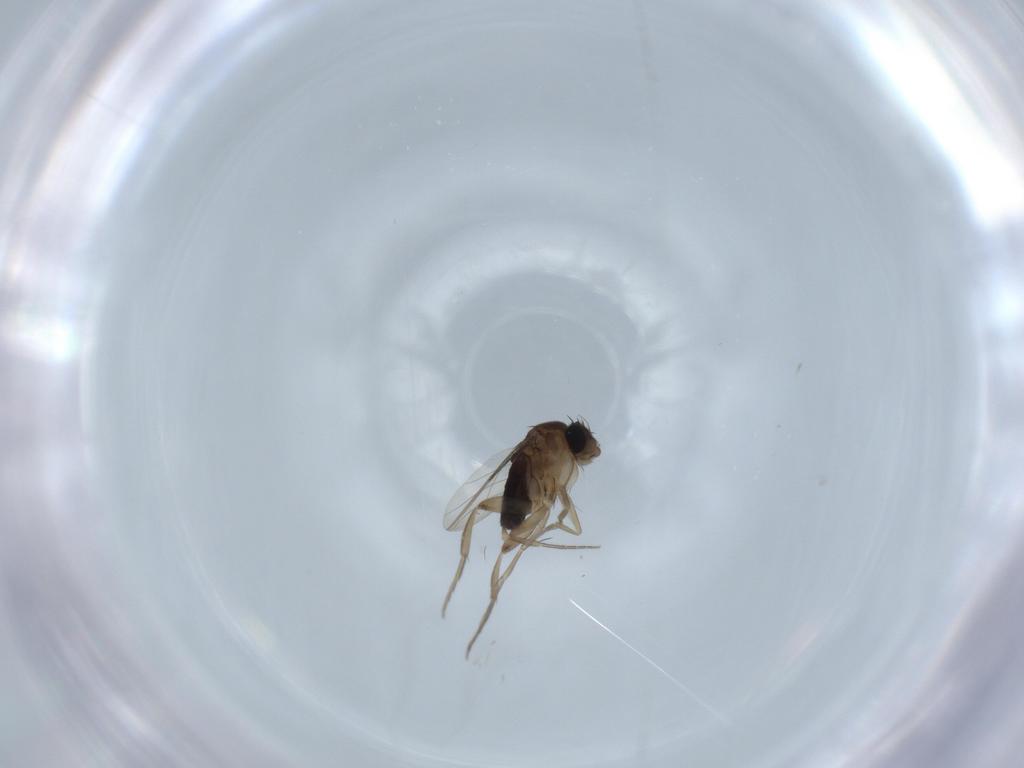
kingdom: Animalia
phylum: Arthropoda
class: Insecta
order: Diptera
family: Phoridae
